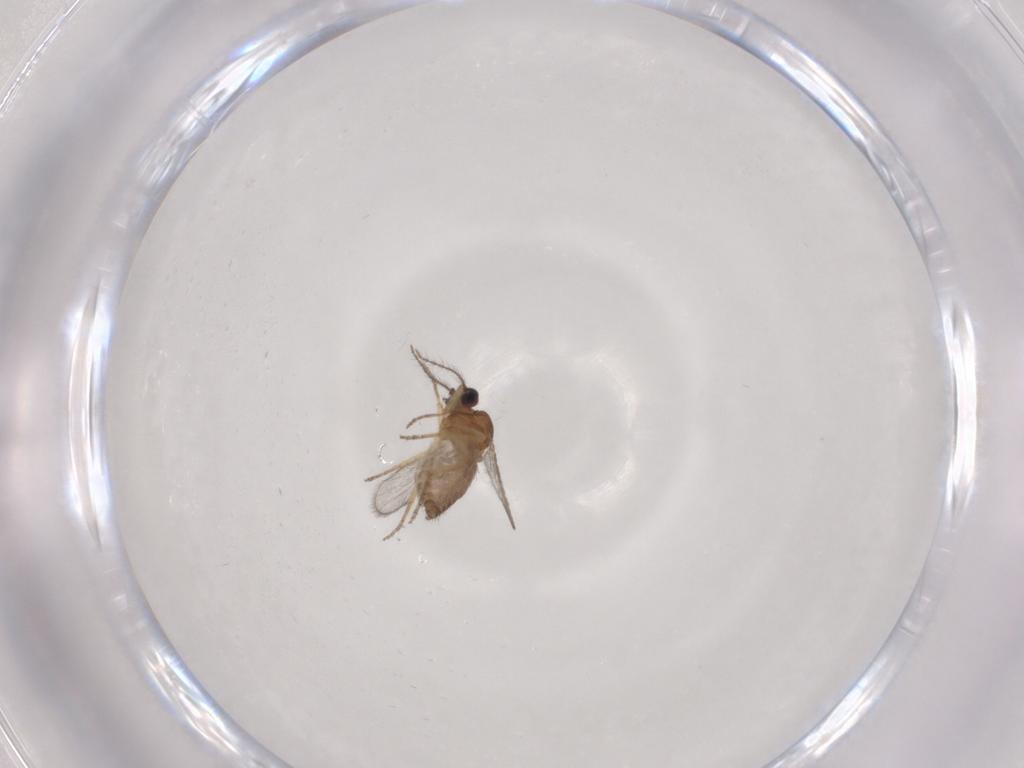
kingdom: Animalia
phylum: Arthropoda
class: Insecta
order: Diptera
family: Ceratopogonidae
